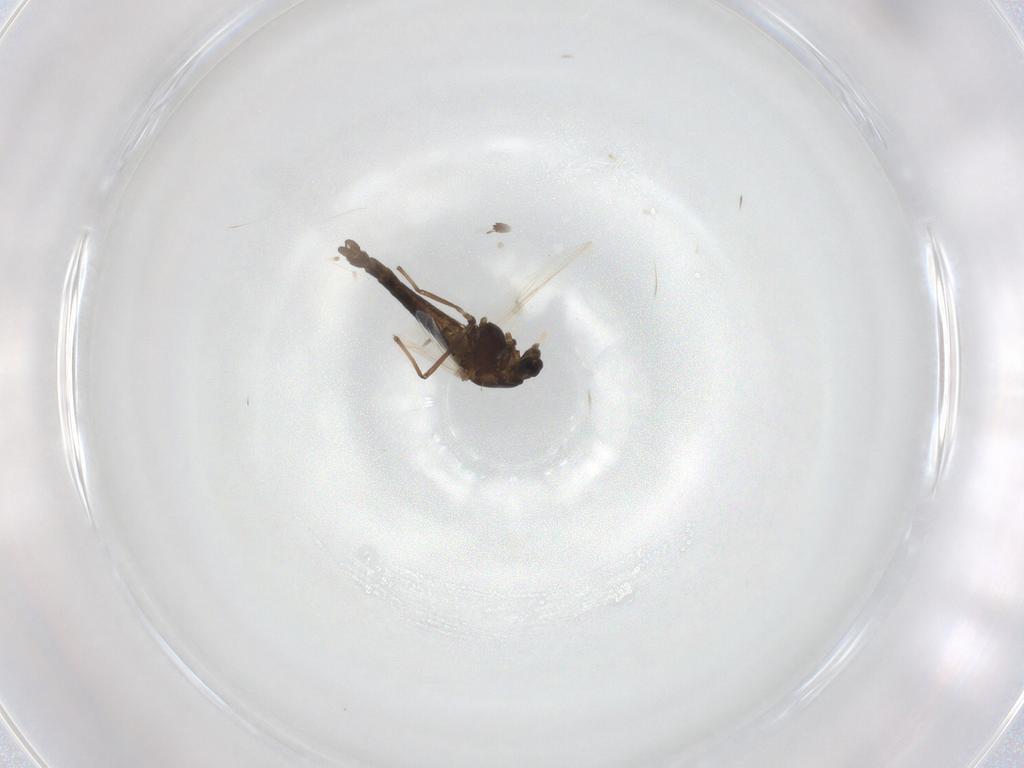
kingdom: Animalia
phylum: Arthropoda
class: Insecta
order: Diptera
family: Chironomidae
